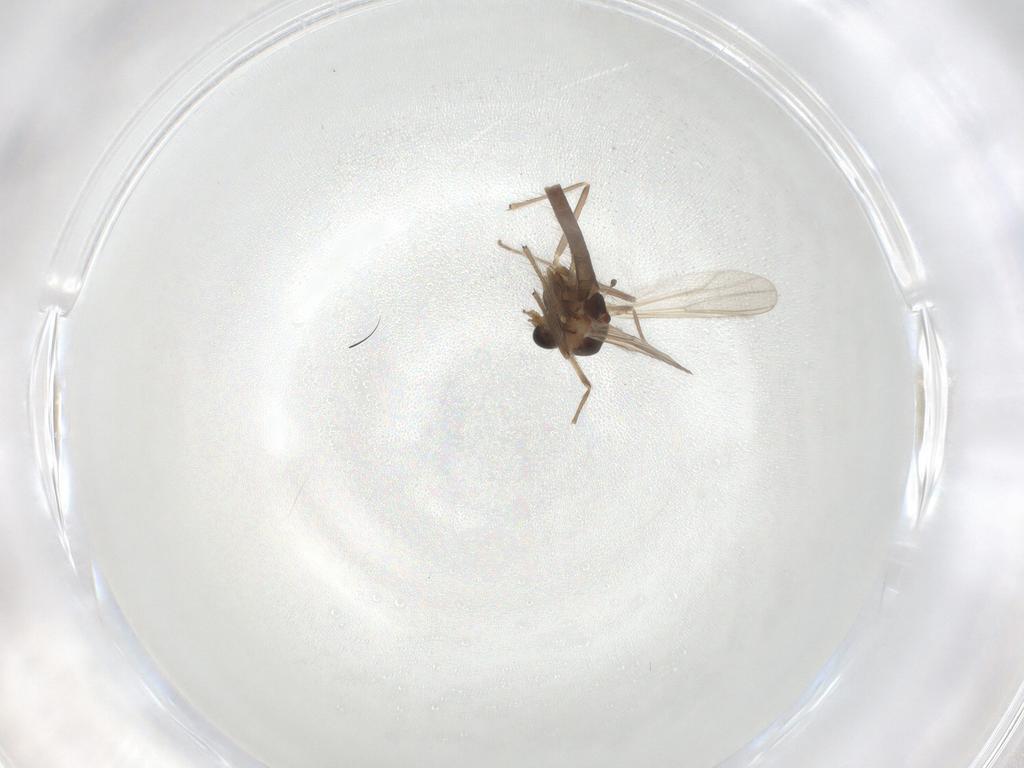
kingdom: Animalia
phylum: Arthropoda
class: Insecta
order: Diptera
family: Chironomidae
